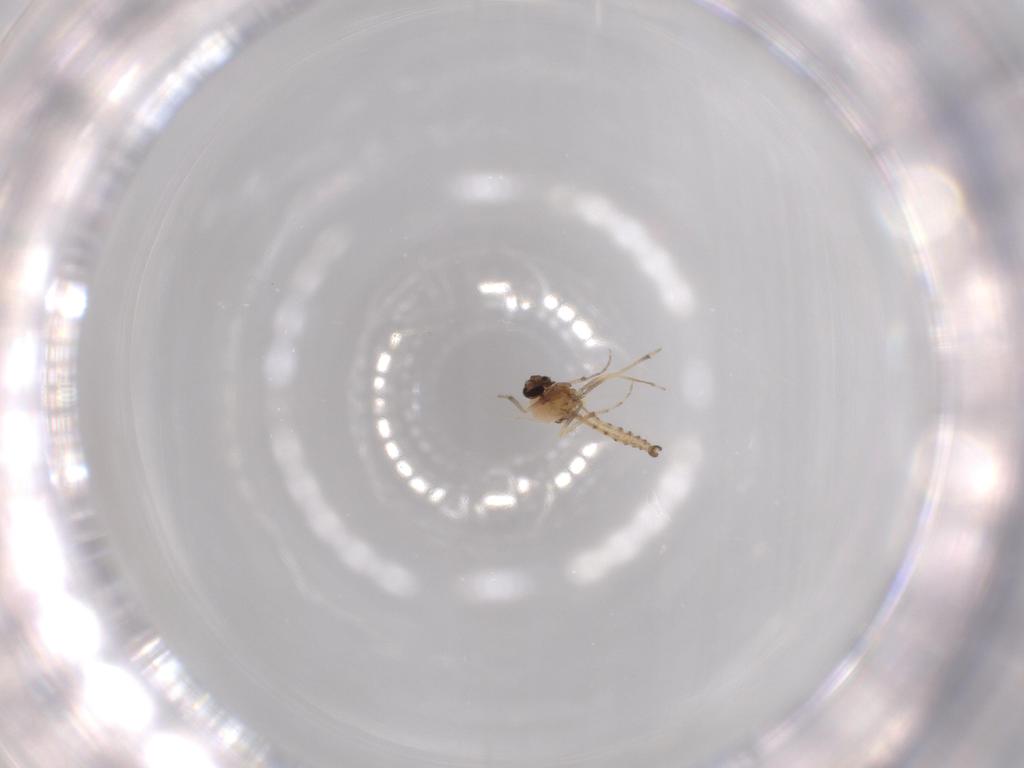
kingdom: Animalia
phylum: Arthropoda
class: Insecta
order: Diptera
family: Ceratopogonidae
